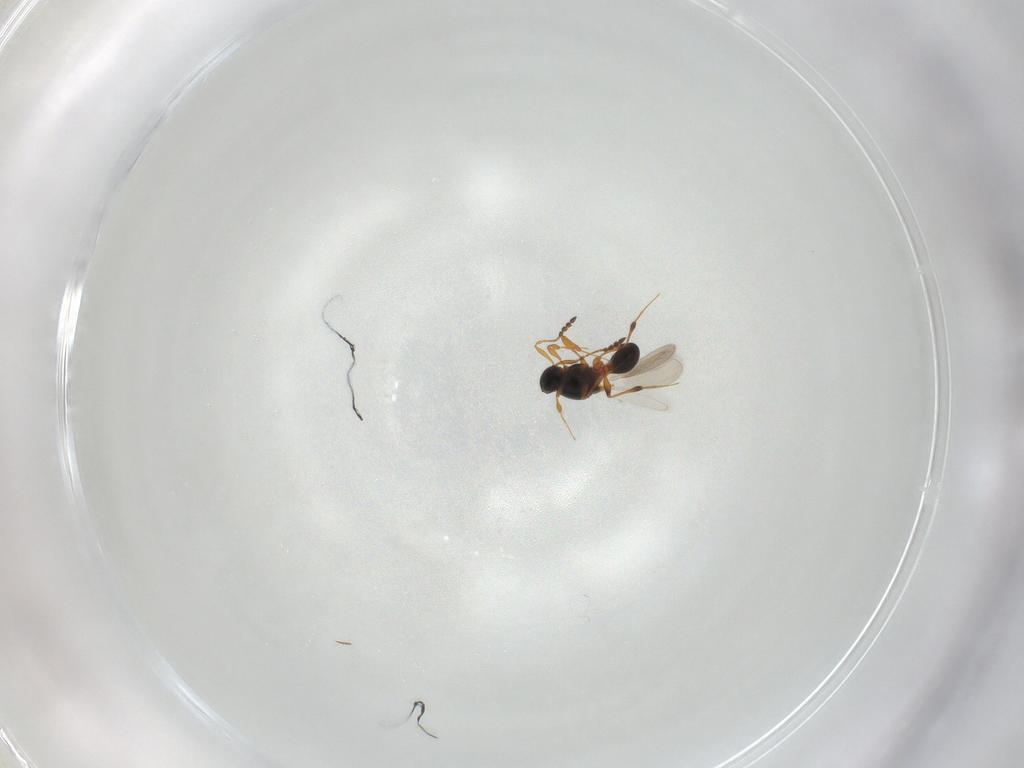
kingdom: Animalia
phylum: Arthropoda
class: Insecta
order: Hymenoptera
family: Platygastridae
